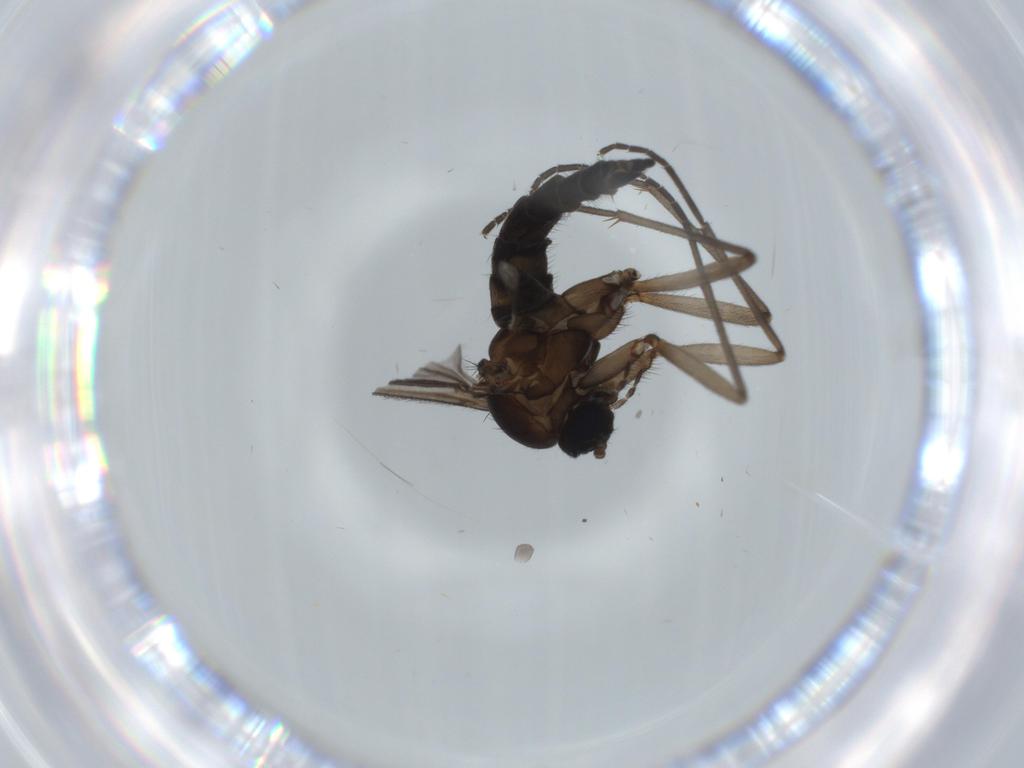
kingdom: Animalia
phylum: Arthropoda
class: Insecta
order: Diptera
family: Sciaridae
